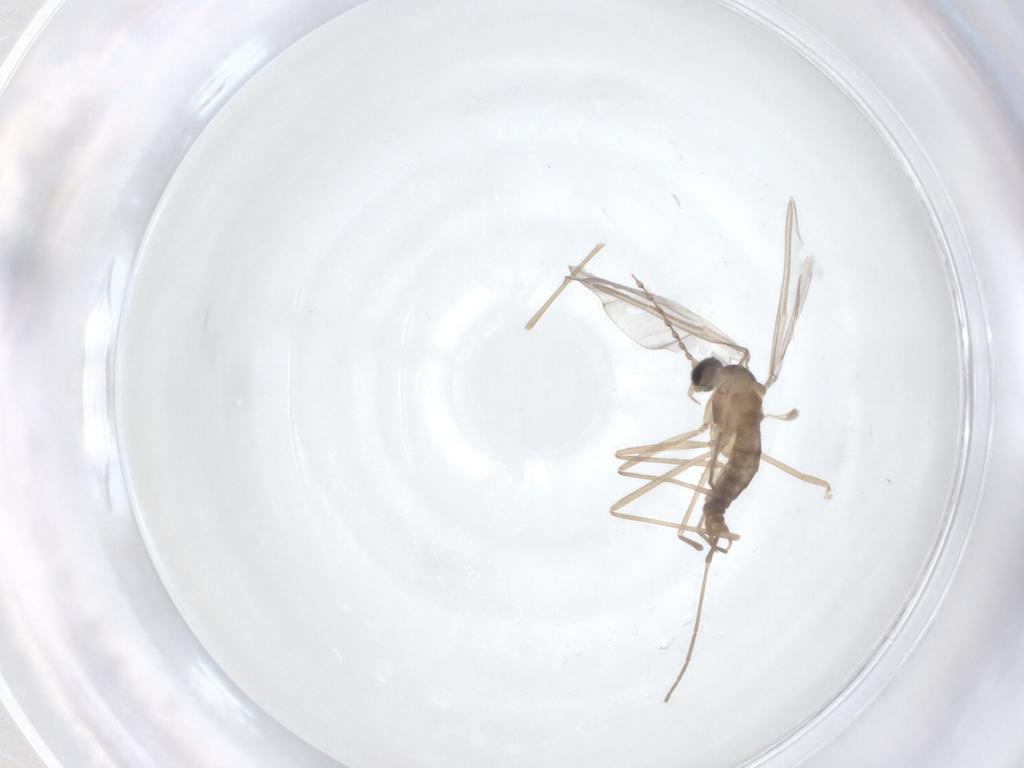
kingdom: Animalia
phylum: Arthropoda
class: Insecta
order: Diptera
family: Cecidomyiidae
